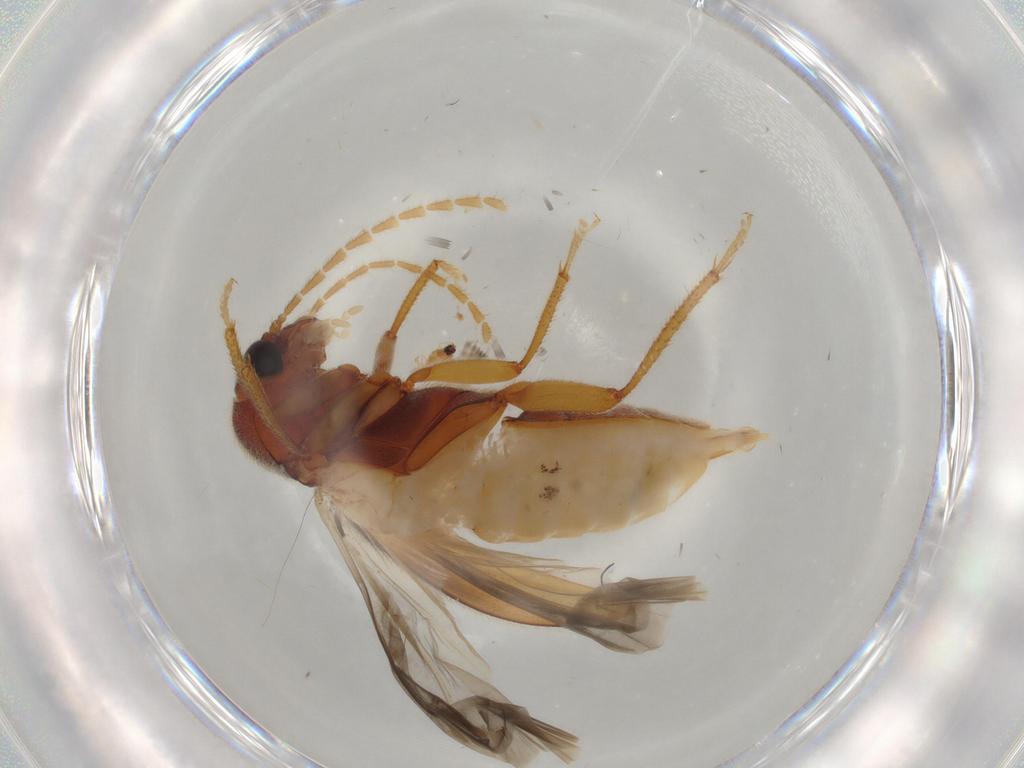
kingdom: Animalia
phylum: Arthropoda
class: Insecta
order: Coleoptera
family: Ptilodactylidae
